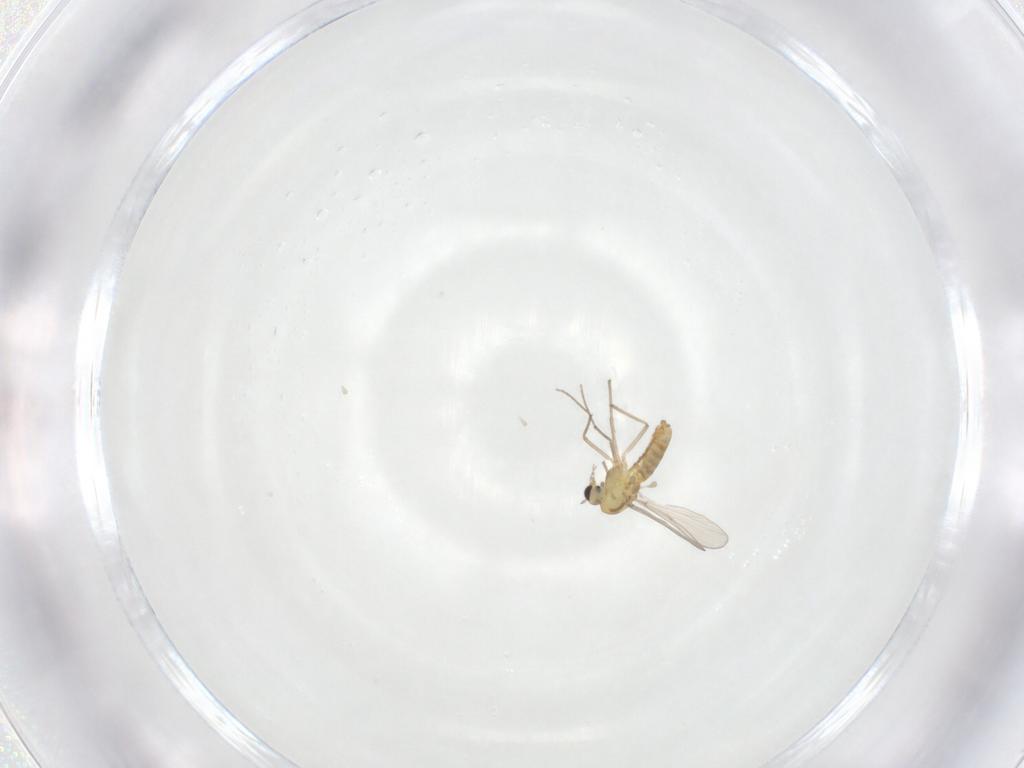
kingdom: Animalia
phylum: Arthropoda
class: Insecta
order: Diptera
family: Chironomidae
